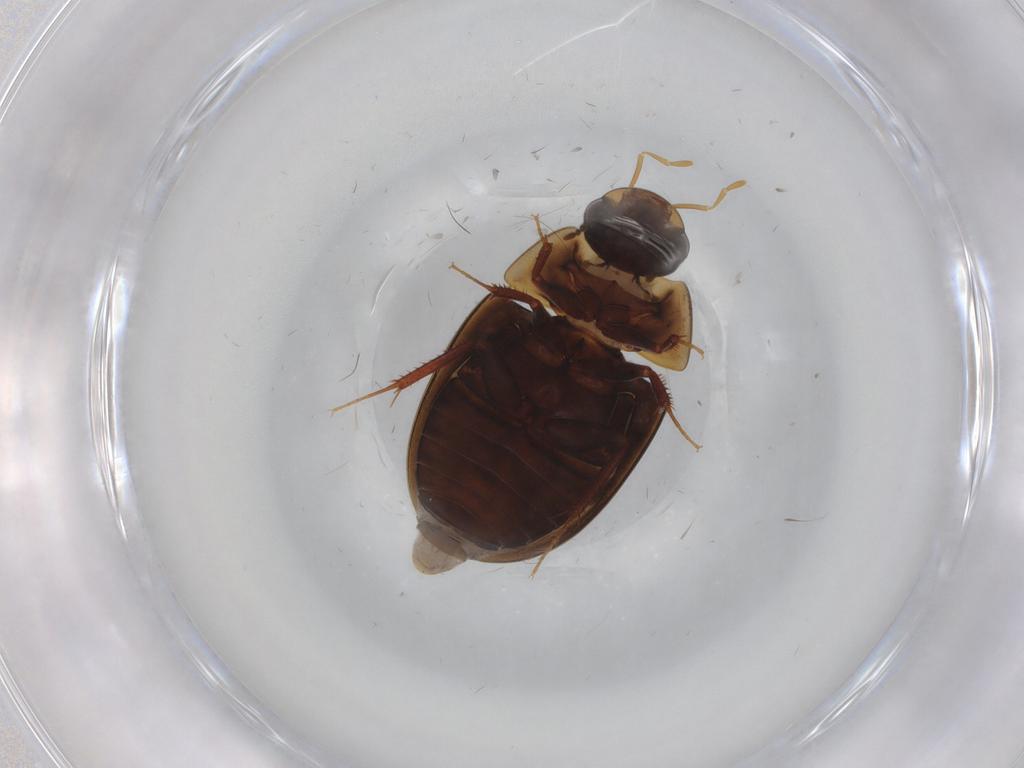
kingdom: Animalia
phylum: Arthropoda
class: Insecta
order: Coleoptera
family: Hydrophilidae
